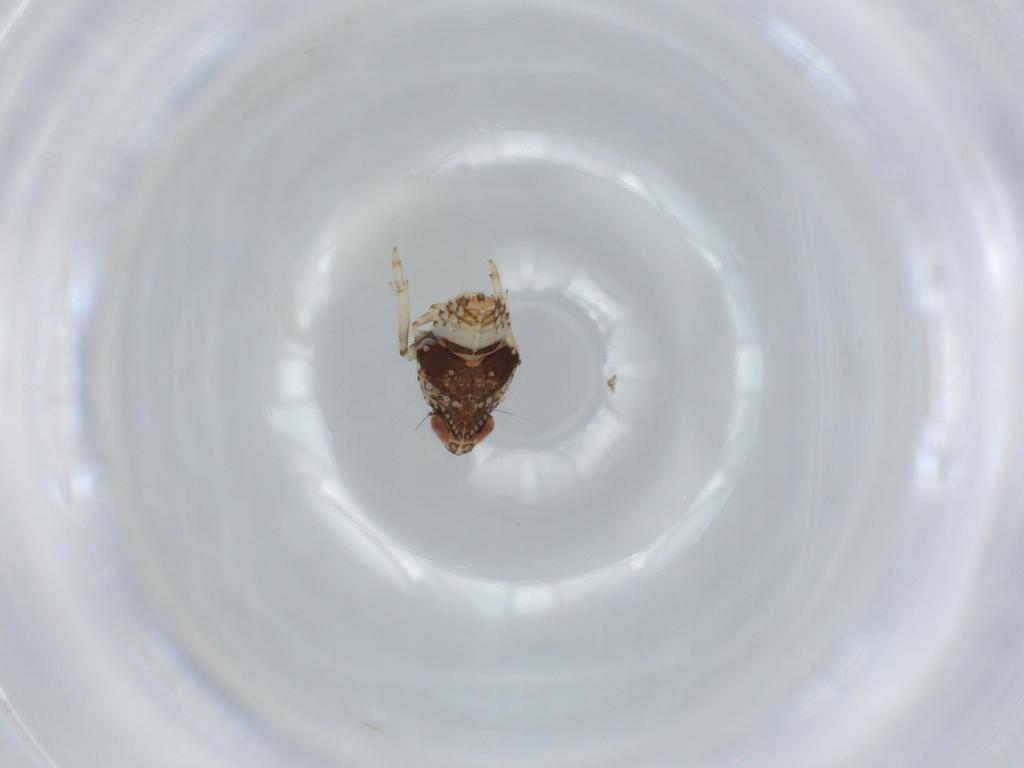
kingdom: Animalia
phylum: Arthropoda
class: Insecta
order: Hemiptera
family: Issidae
